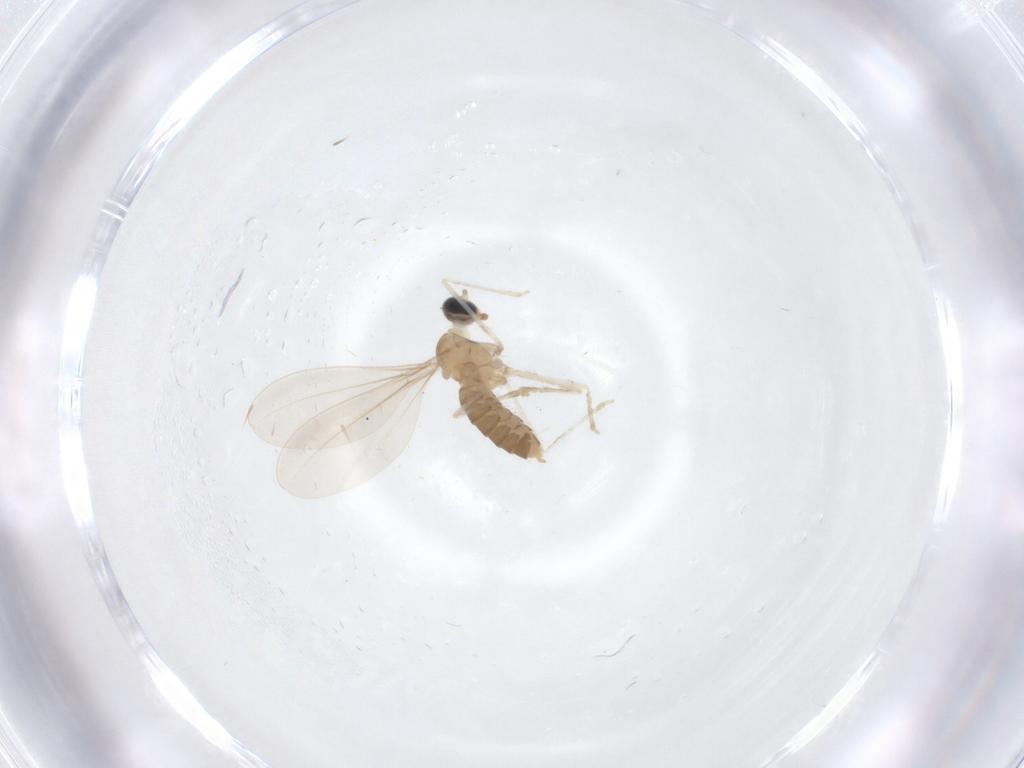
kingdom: Animalia
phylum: Arthropoda
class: Insecta
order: Diptera
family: Cecidomyiidae
